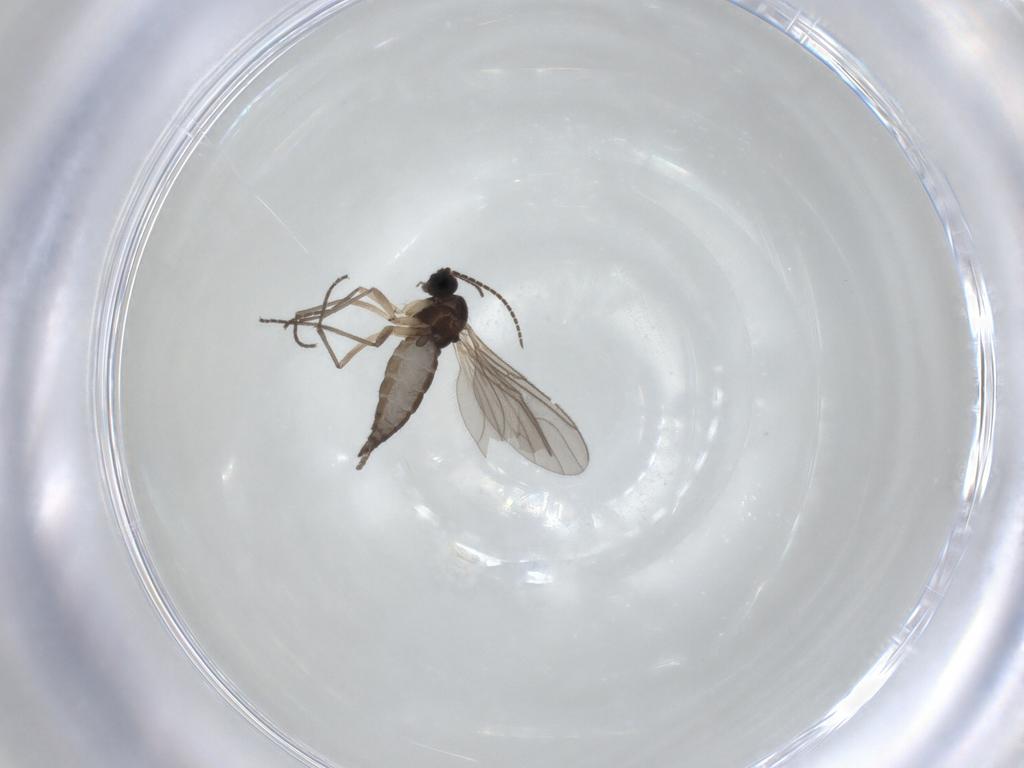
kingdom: Animalia
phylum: Arthropoda
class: Insecta
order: Diptera
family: Sciaridae
